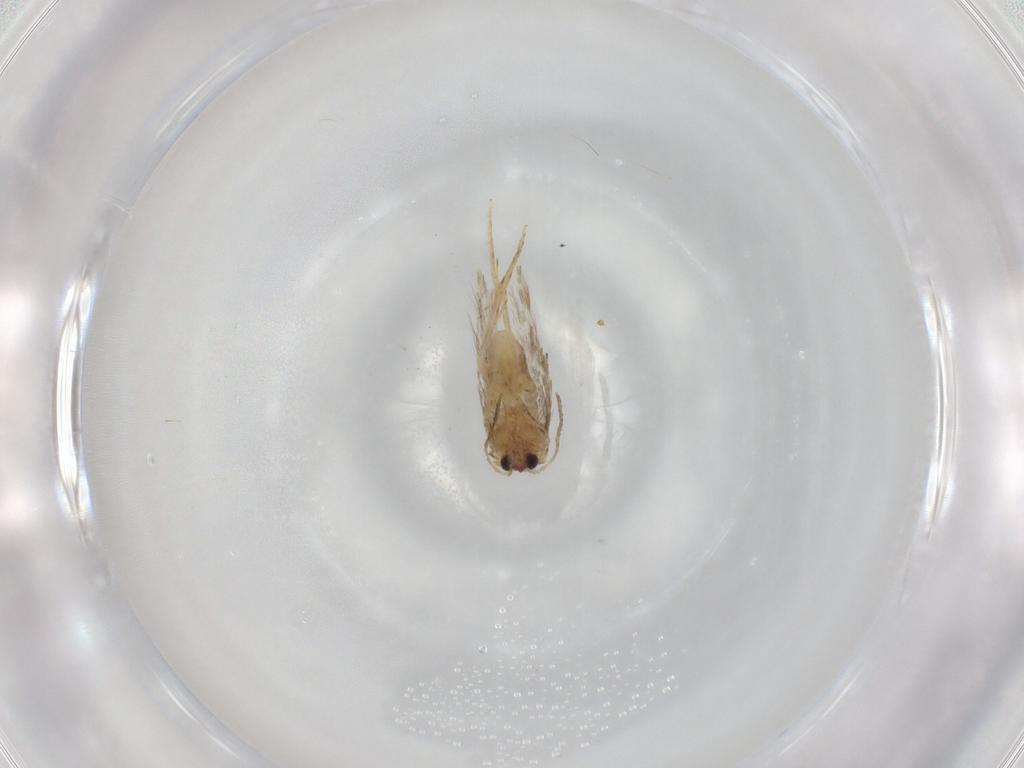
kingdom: Animalia
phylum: Arthropoda
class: Insecta
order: Lepidoptera
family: Nepticulidae
